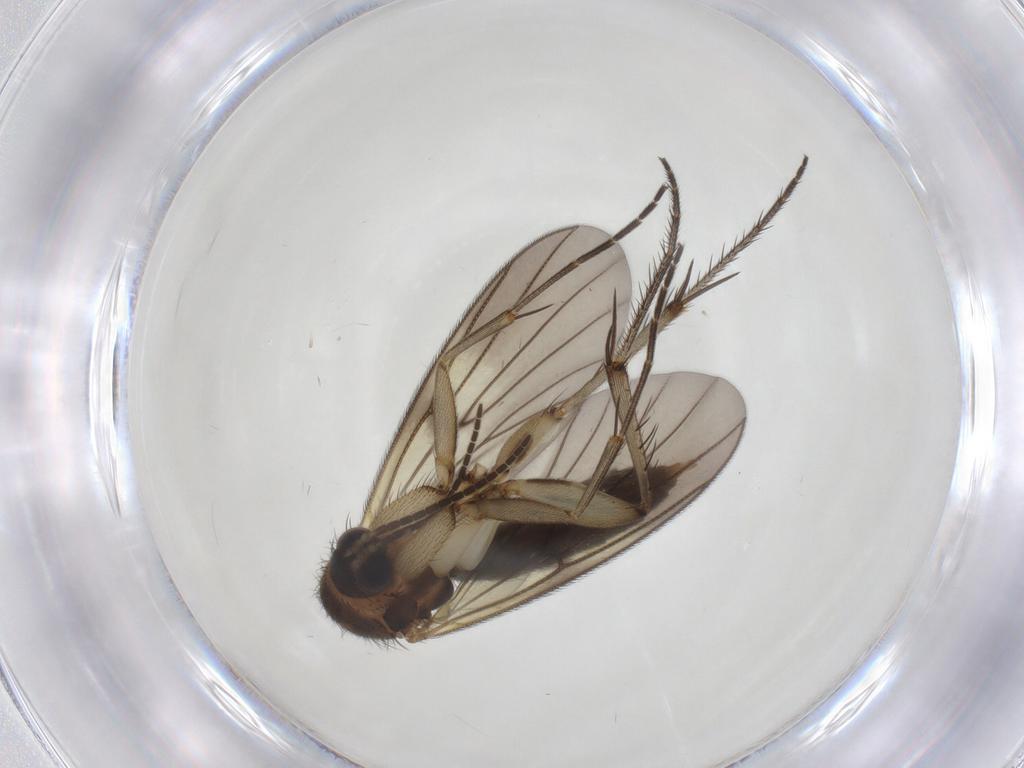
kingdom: Animalia
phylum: Arthropoda
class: Insecta
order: Diptera
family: Mycetophilidae
